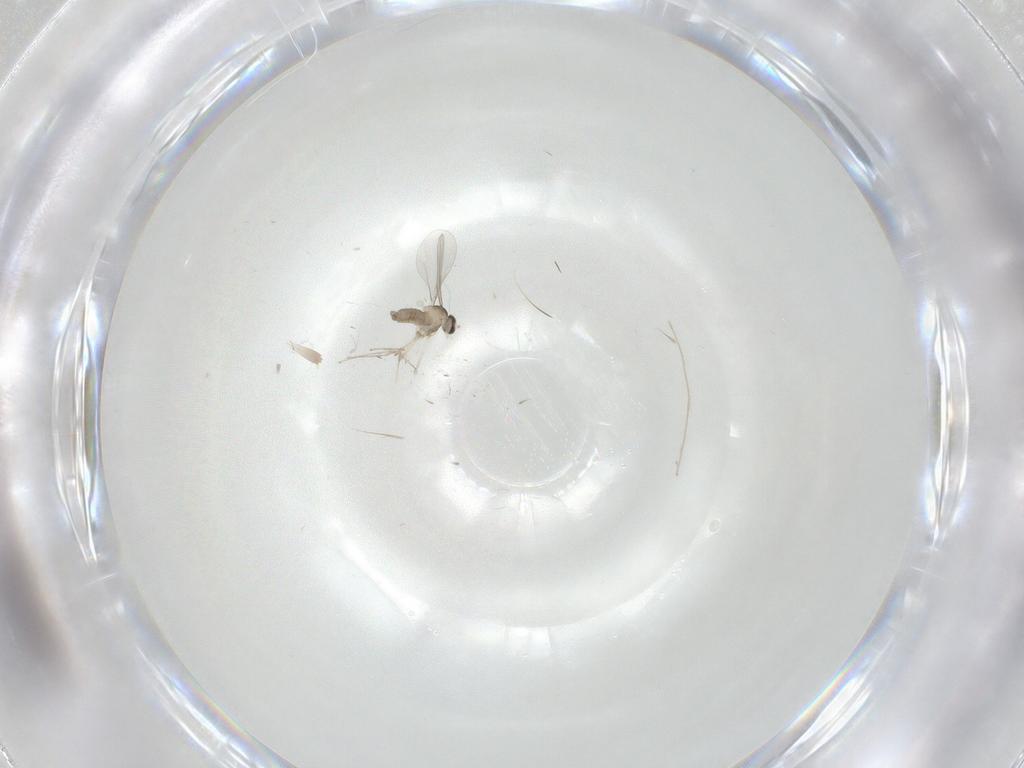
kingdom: Animalia
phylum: Arthropoda
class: Insecta
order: Diptera
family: Chironomidae
